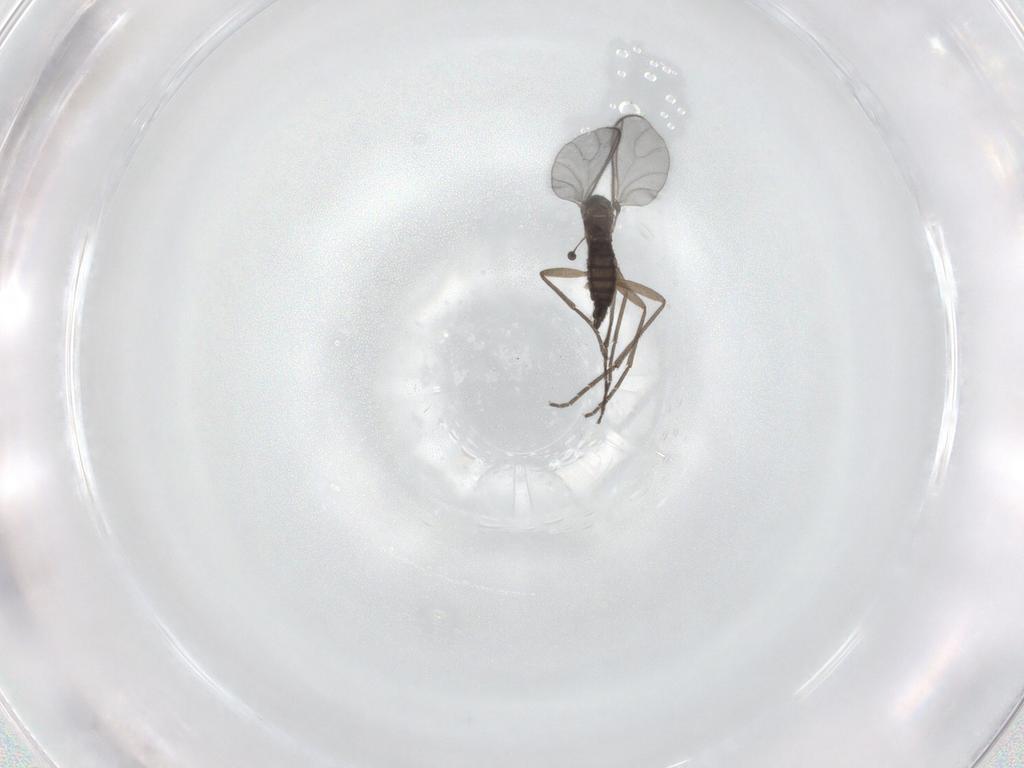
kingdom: Animalia
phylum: Arthropoda
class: Insecta
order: Diptera
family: Sciaridae
